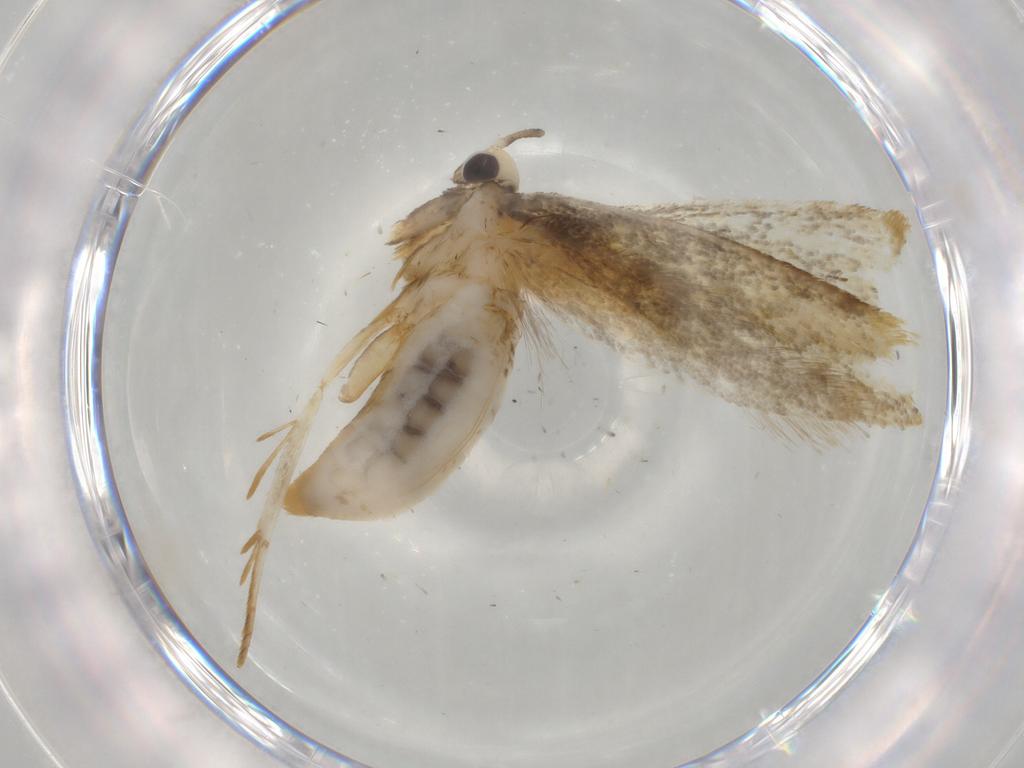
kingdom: Animalia
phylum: Arthropoda
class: Insecta
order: Lepidoptera
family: Tineidae
